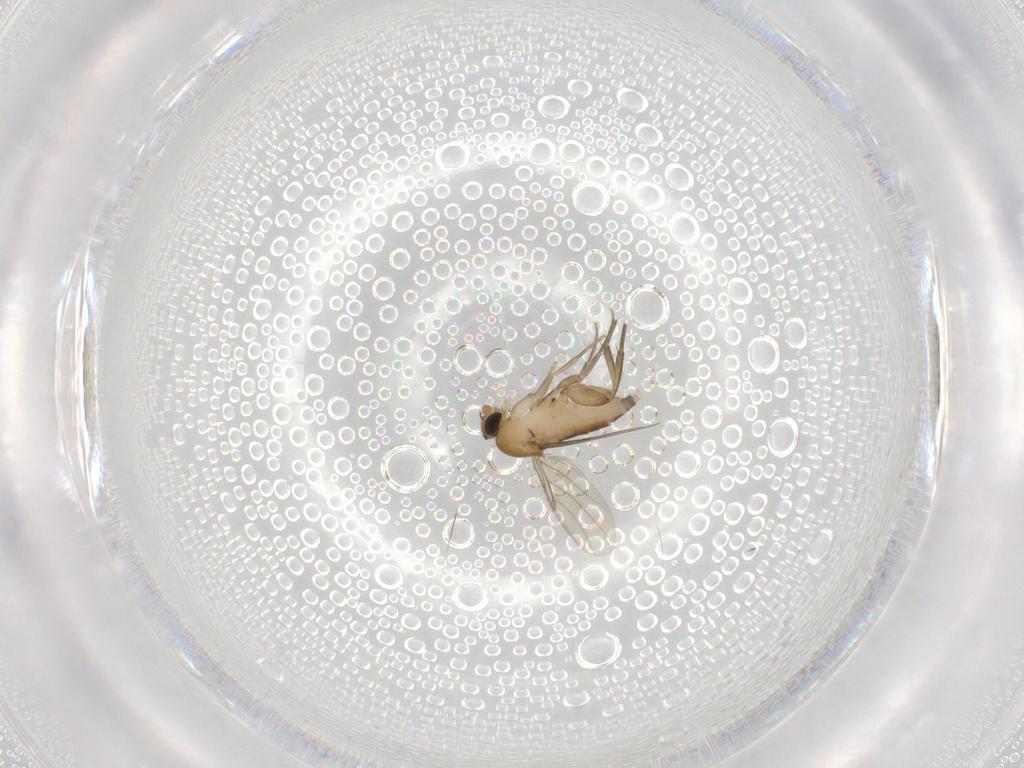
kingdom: Animalia
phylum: Arthropoda
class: Insecta
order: Diptera
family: Phoridae
